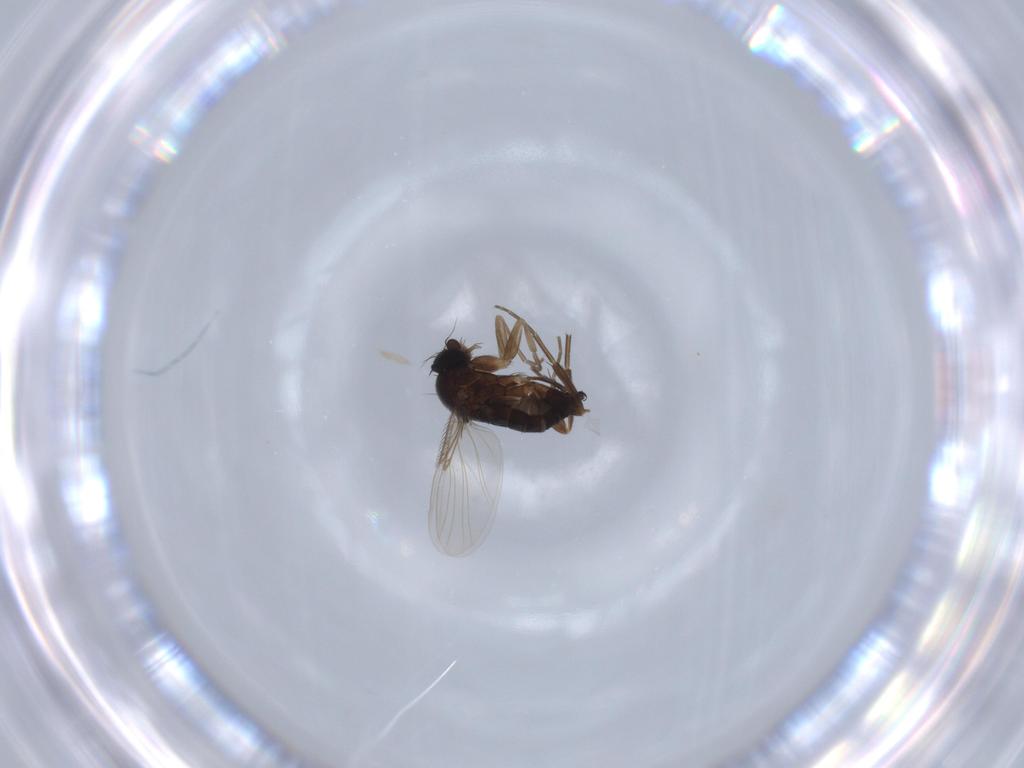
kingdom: Animalia
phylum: Arthropoda
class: Insecta
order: Diptera
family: Phoridae
